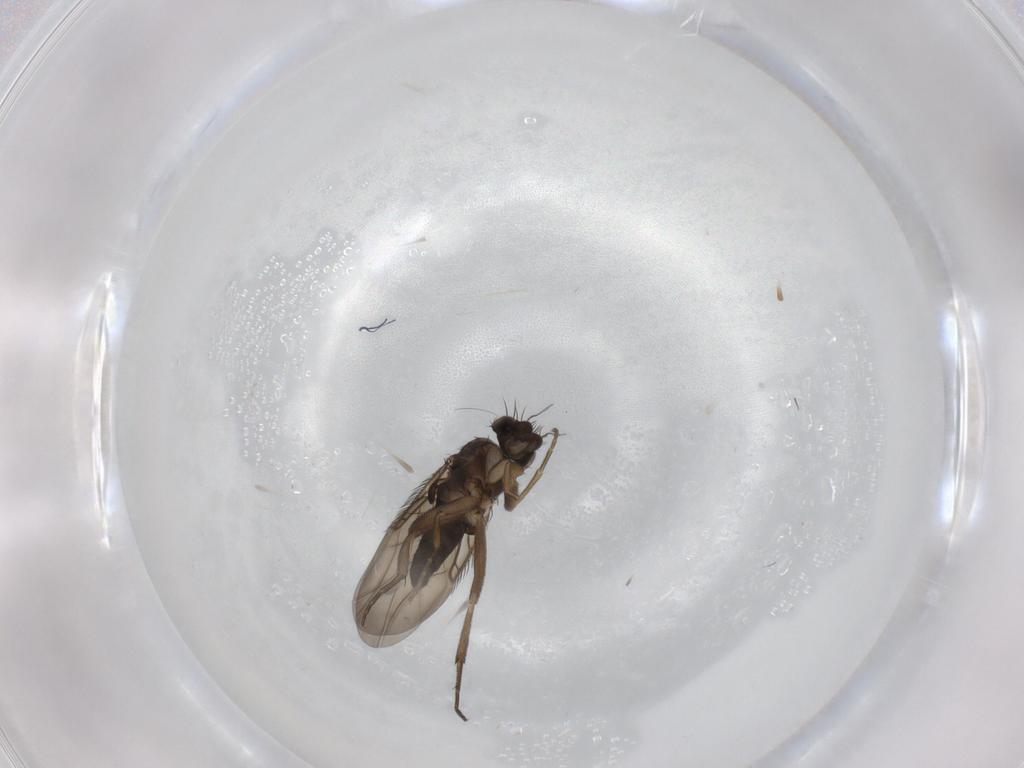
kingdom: Animalia
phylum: Arthropoda
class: Insecta
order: Diptera
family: Phoridae
